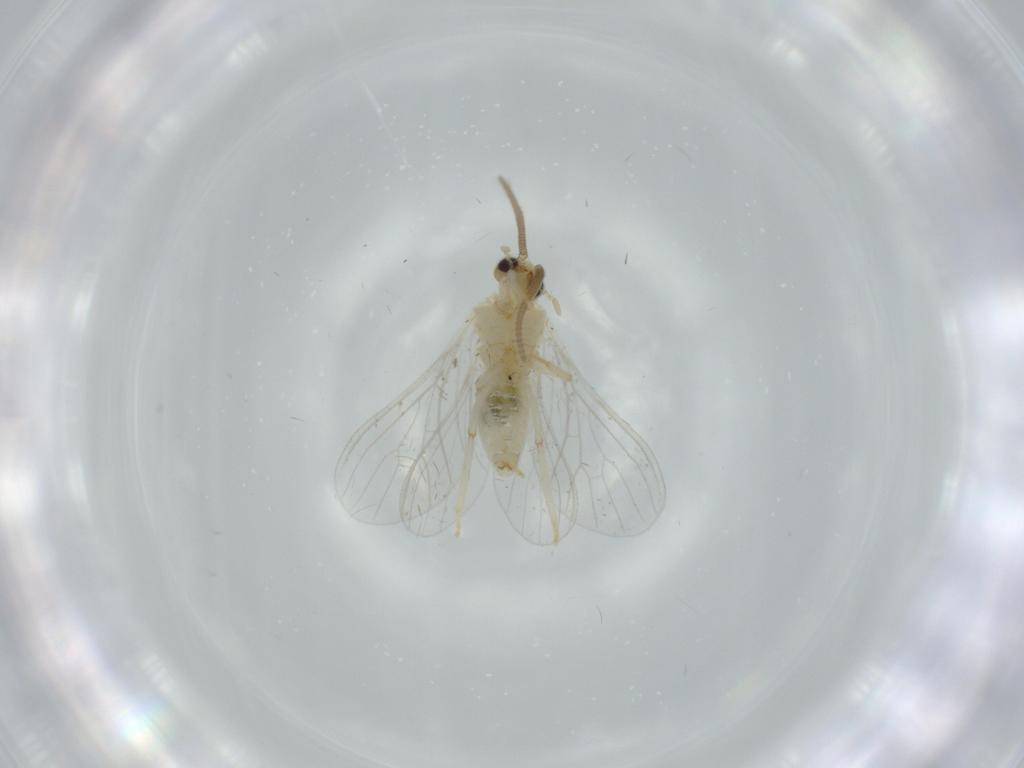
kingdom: Animalia
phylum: Arthropoda
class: Insecta
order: Neuroptera
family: Coniopterygidae
